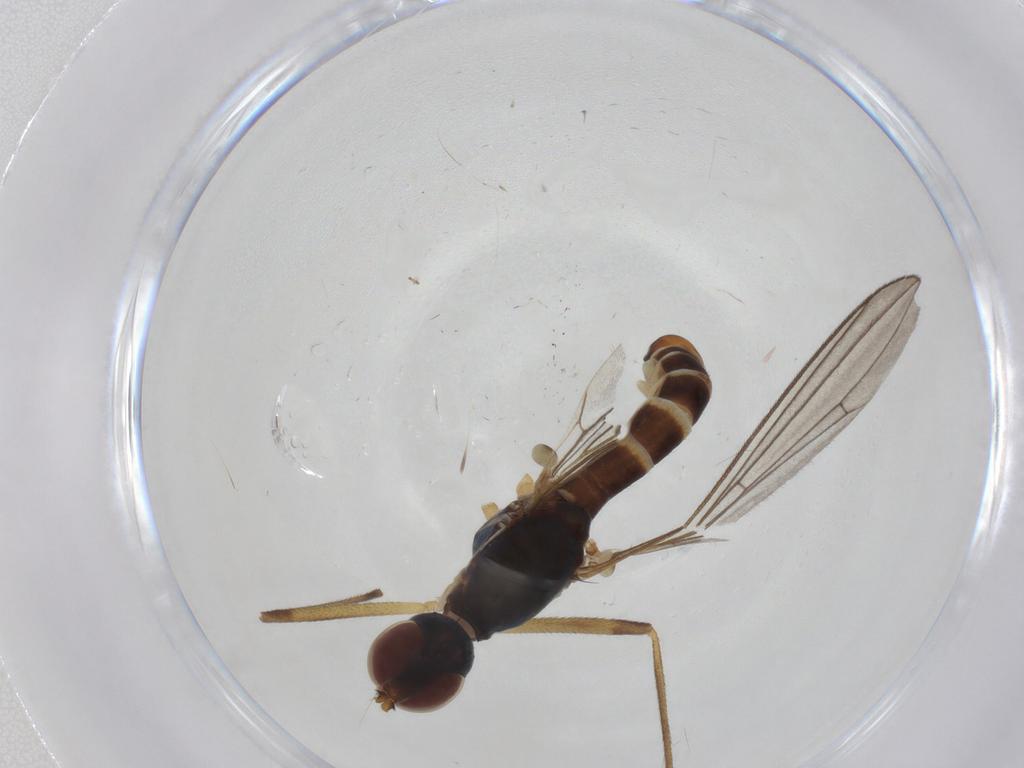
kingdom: Animalia
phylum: Arthropoda
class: Insecta
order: Diptera
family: Micropezidae
